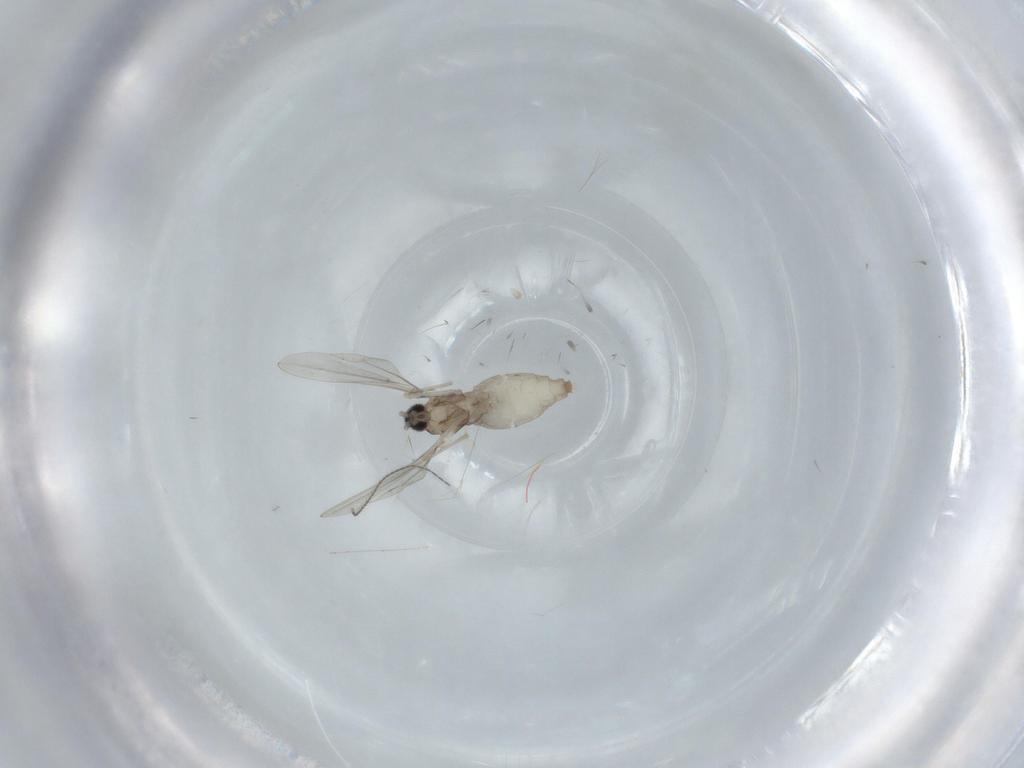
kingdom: Animalia
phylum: Arthropoda
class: Insecta
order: Diptera
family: Cecidomyiidae
